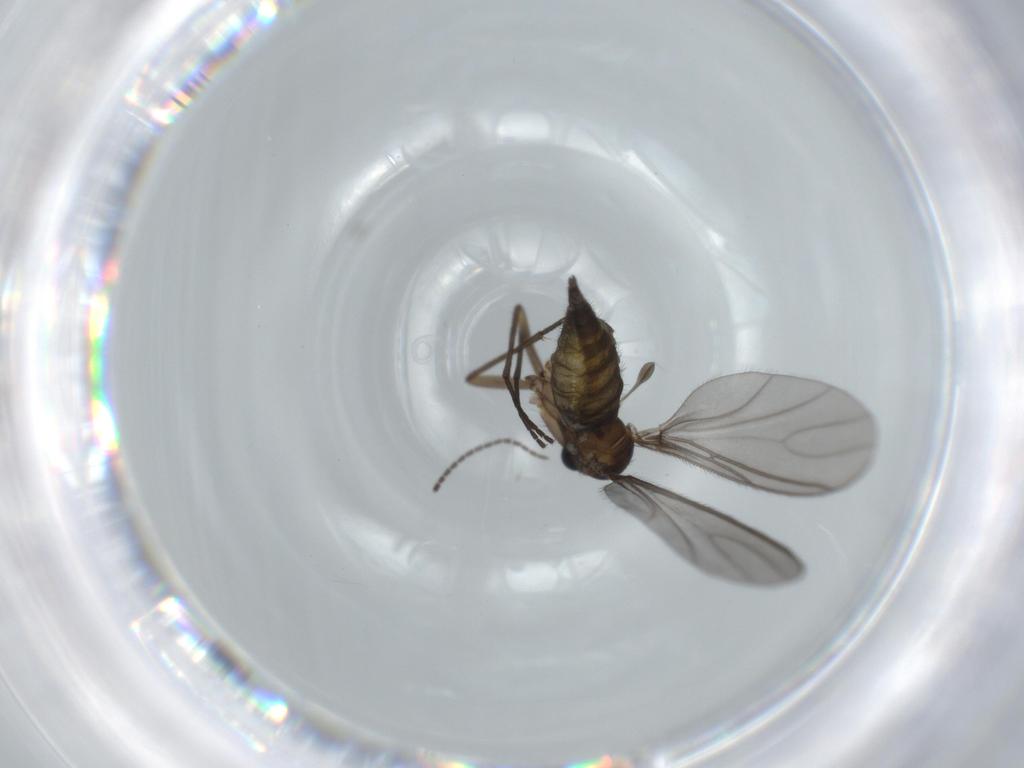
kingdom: Animalia
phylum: Arthropoda
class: Insecta
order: Diptera
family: Sciaridae
